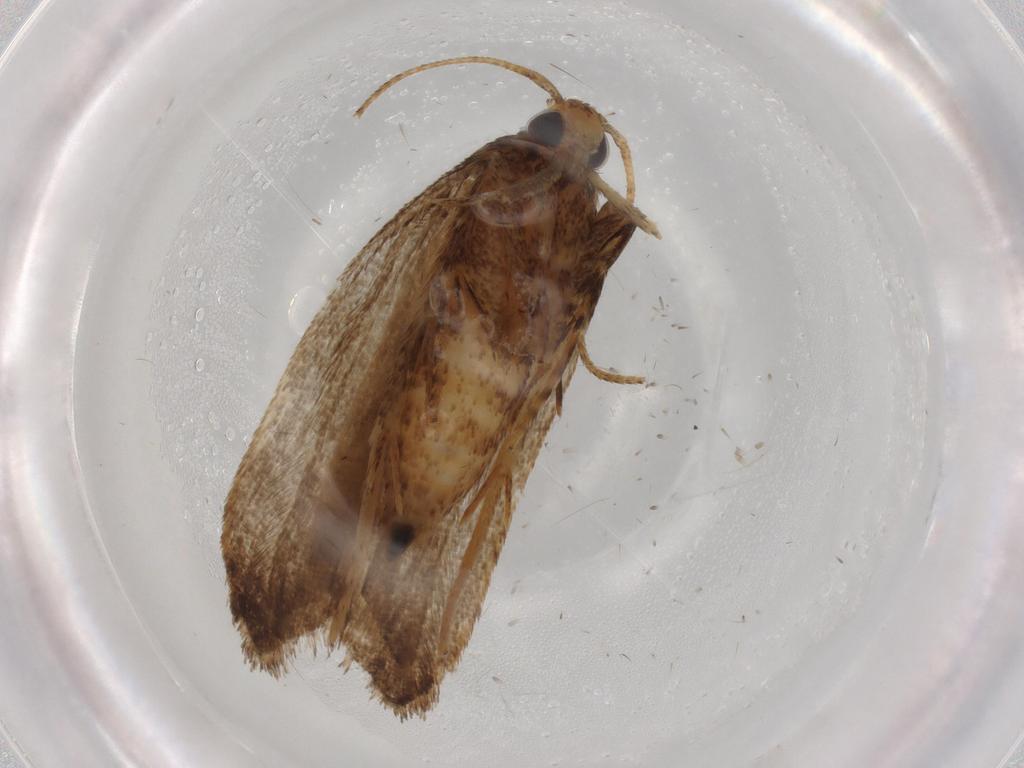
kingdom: Animalia
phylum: Arthropoda
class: Insecta
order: Lepidoptera
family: Autostichidae
